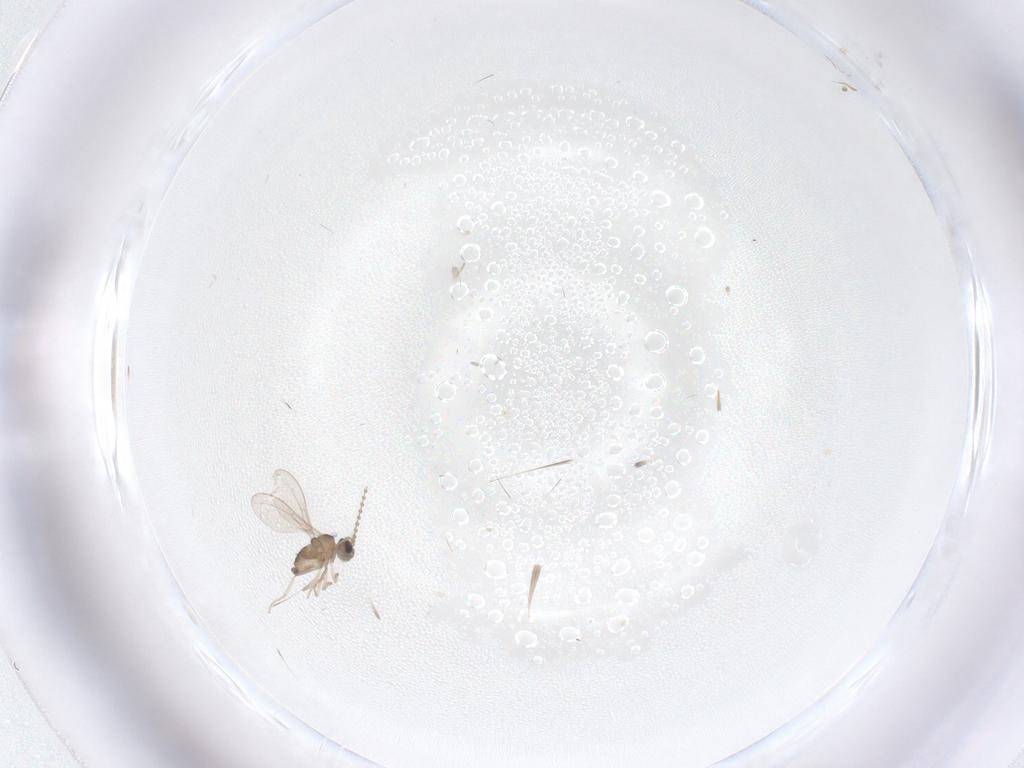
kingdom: Animalia
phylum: Arthropoda
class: Insecta
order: Diptera
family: Cecidomyiidae
